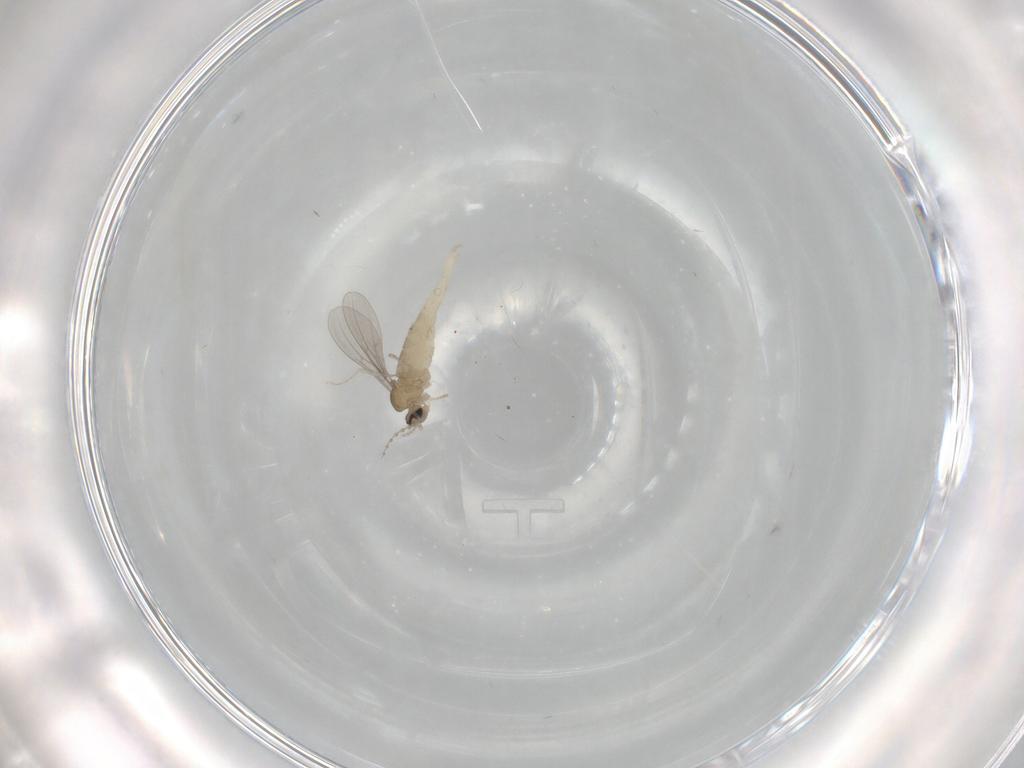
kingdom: Animalia
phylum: Arthropoda
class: Insecta
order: Diptera
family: Cecidomyiidae
